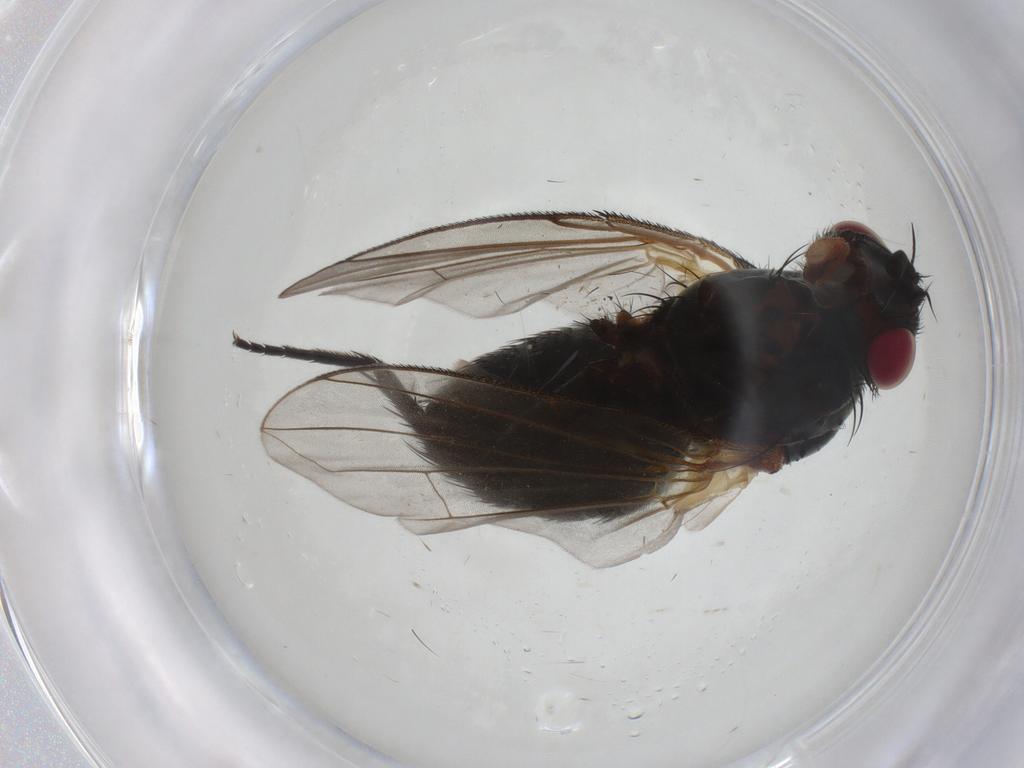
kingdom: Animalia
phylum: Arthropoda
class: Insecta
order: Diptera
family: Tachinidae
